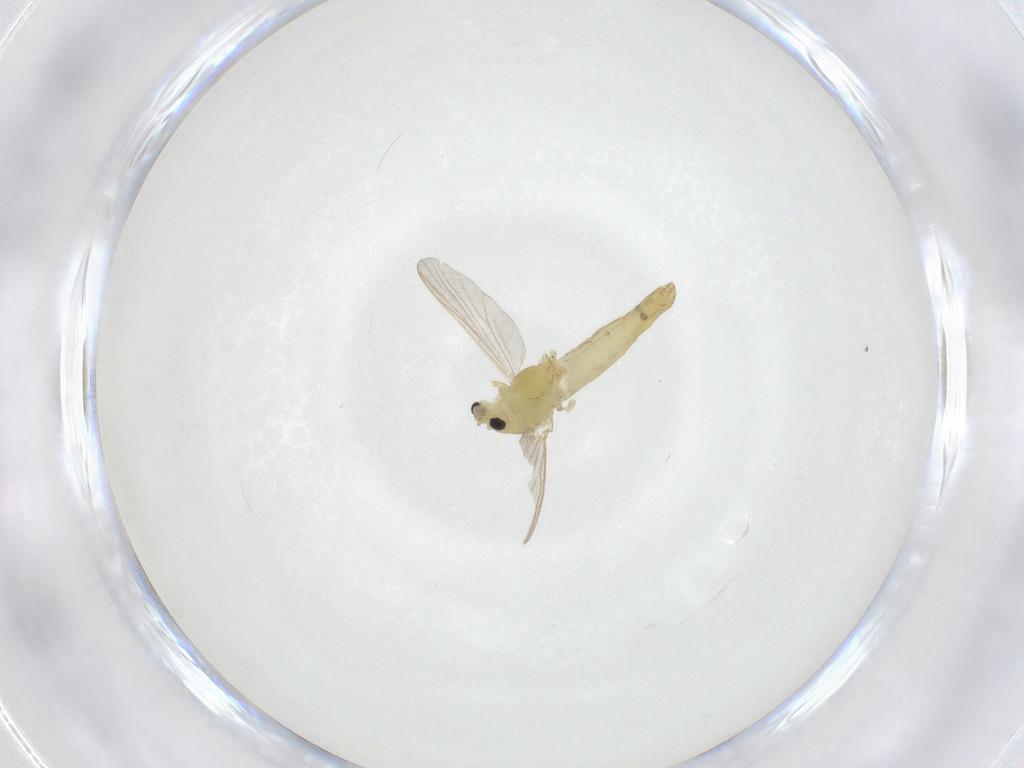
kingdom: Animalia
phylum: Arthropoda
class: Insecta
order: Diptera
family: Chironomidae
